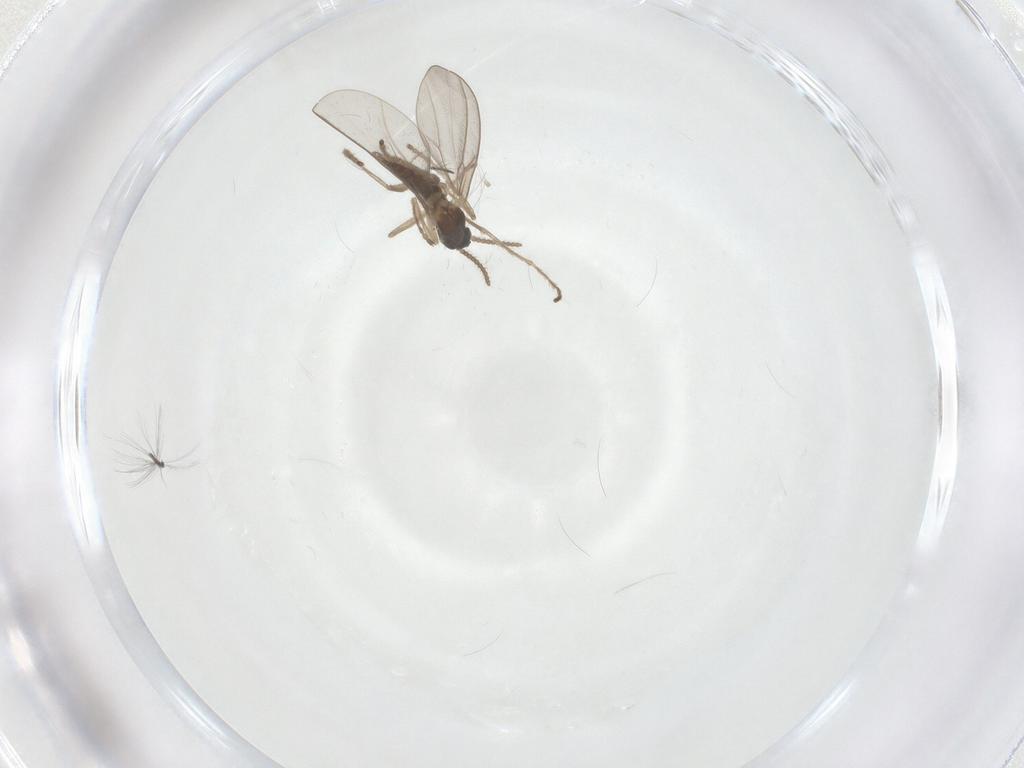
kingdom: Animalia
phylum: Arthropoda
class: Insecta
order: Diptera
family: Cecidomyiidae
